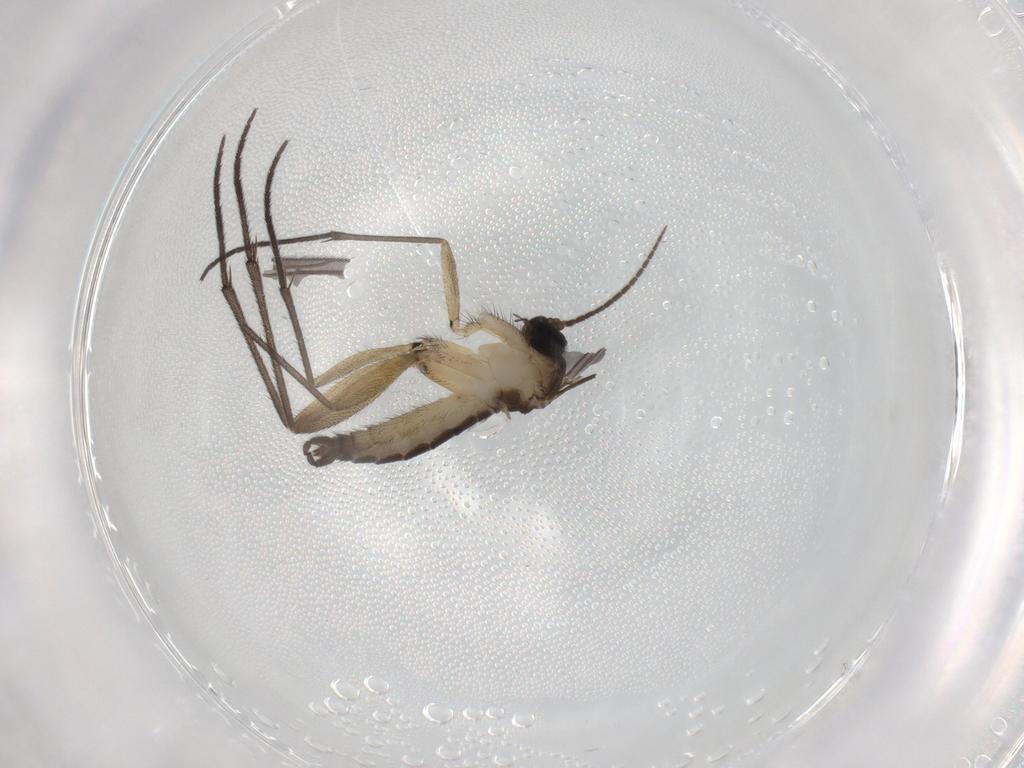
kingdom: Animalia
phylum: Arthropoda
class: Insecta
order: Diptera
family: Sciaridae
